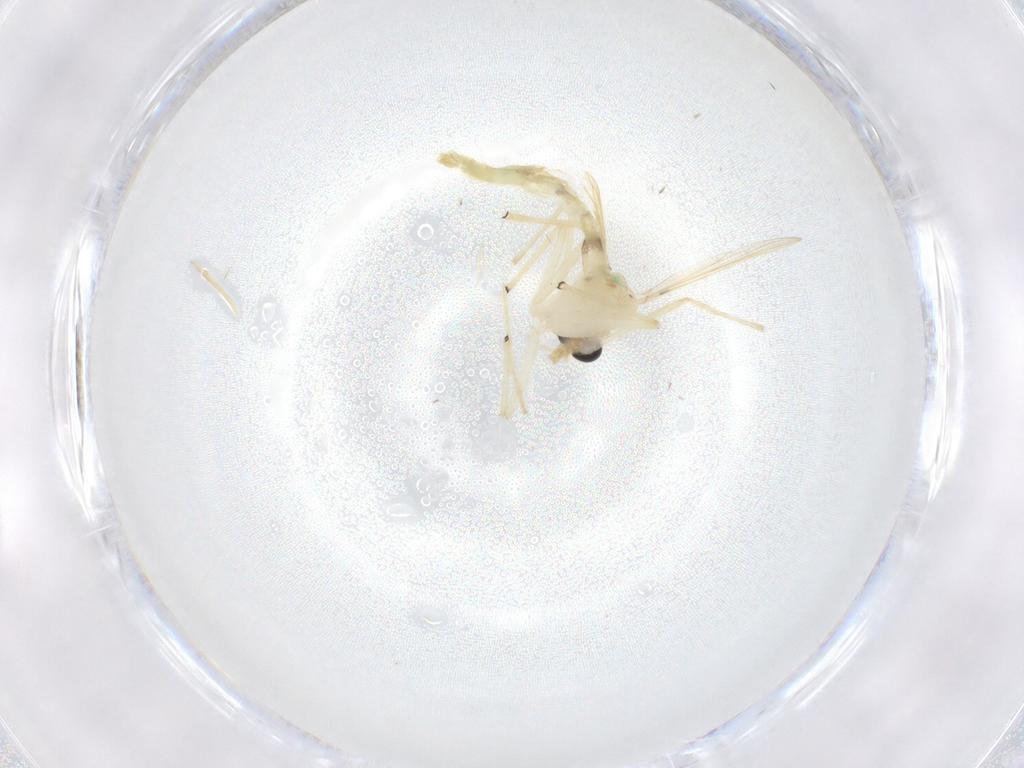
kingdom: Animalia
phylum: Arthropoda
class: Insecta
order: Diptera
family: Chironomidae
